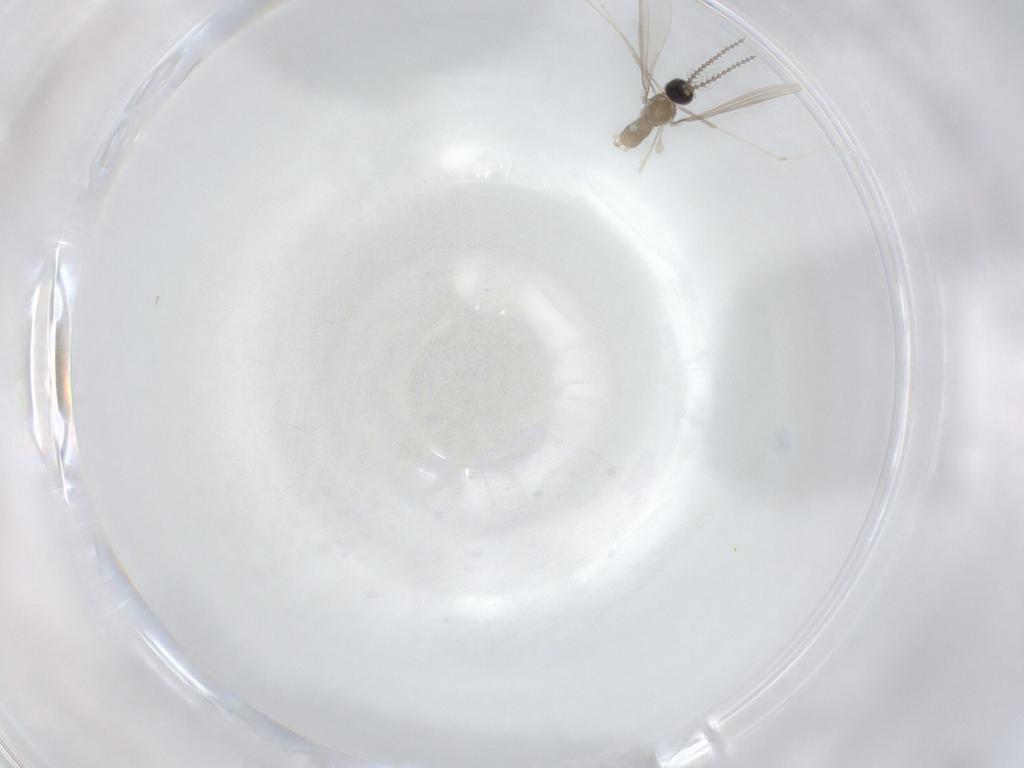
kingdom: Animalia
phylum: Arthropoda
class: Insecta
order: Diptera
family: Cecidomyiidae
